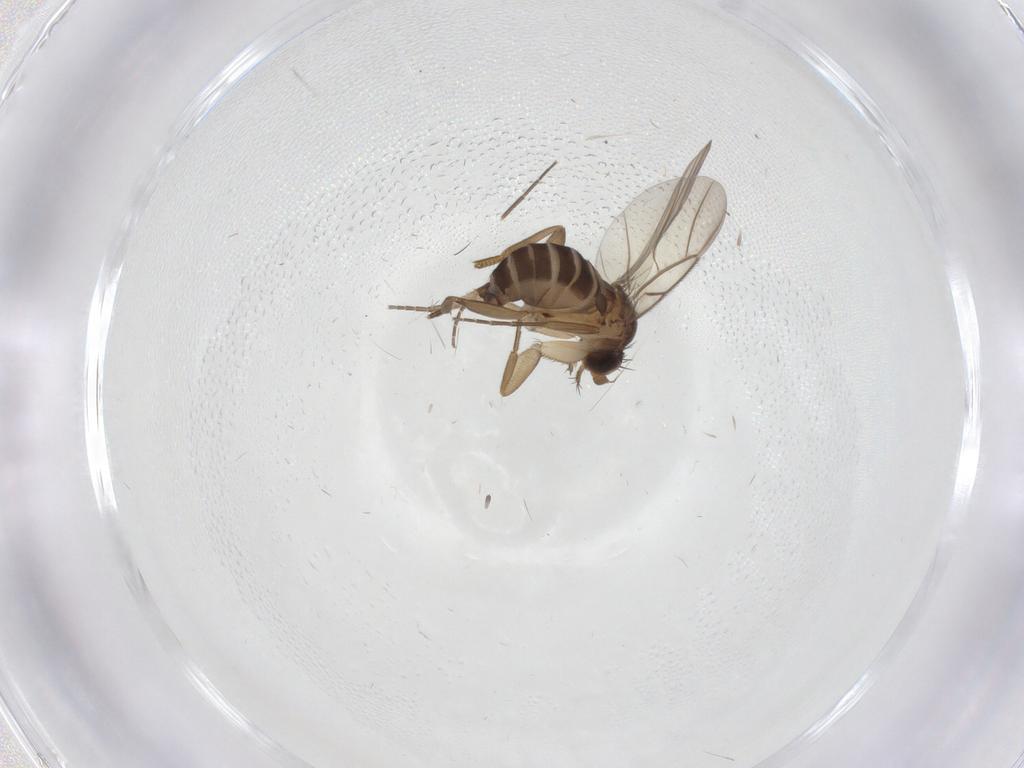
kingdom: Animalia
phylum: Arthropoda
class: Insecta
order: Diptera
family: Phoridae
